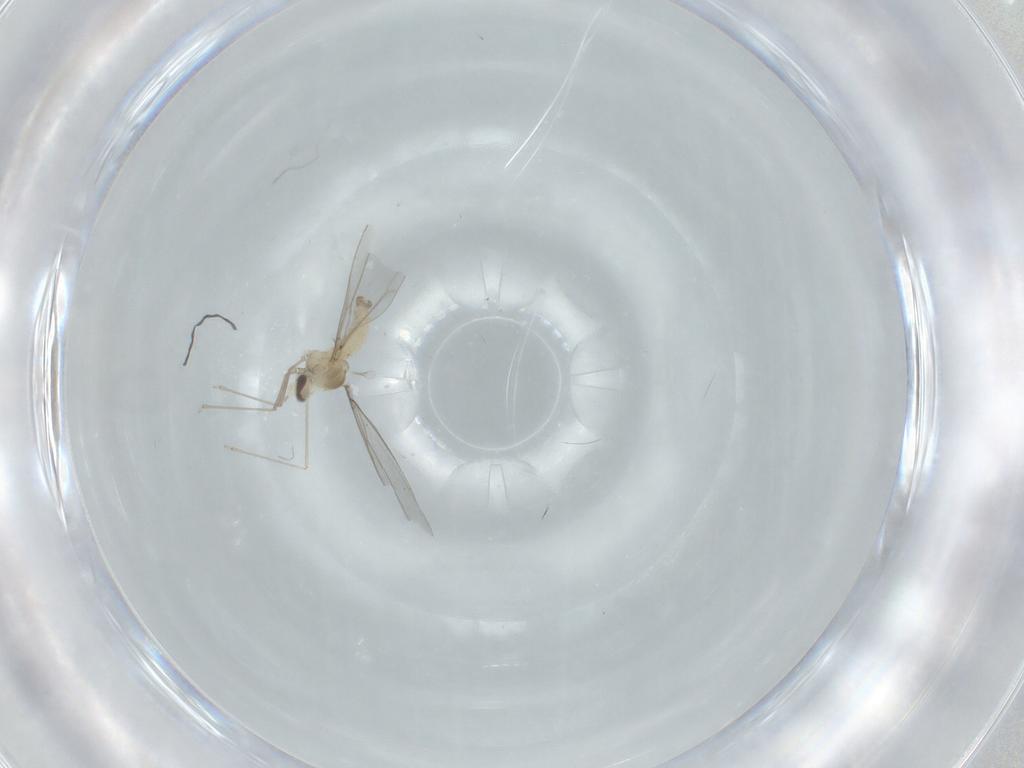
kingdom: Animalia
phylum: Arthropoda
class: Insecta
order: Diptera
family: Cecidomyiidae
